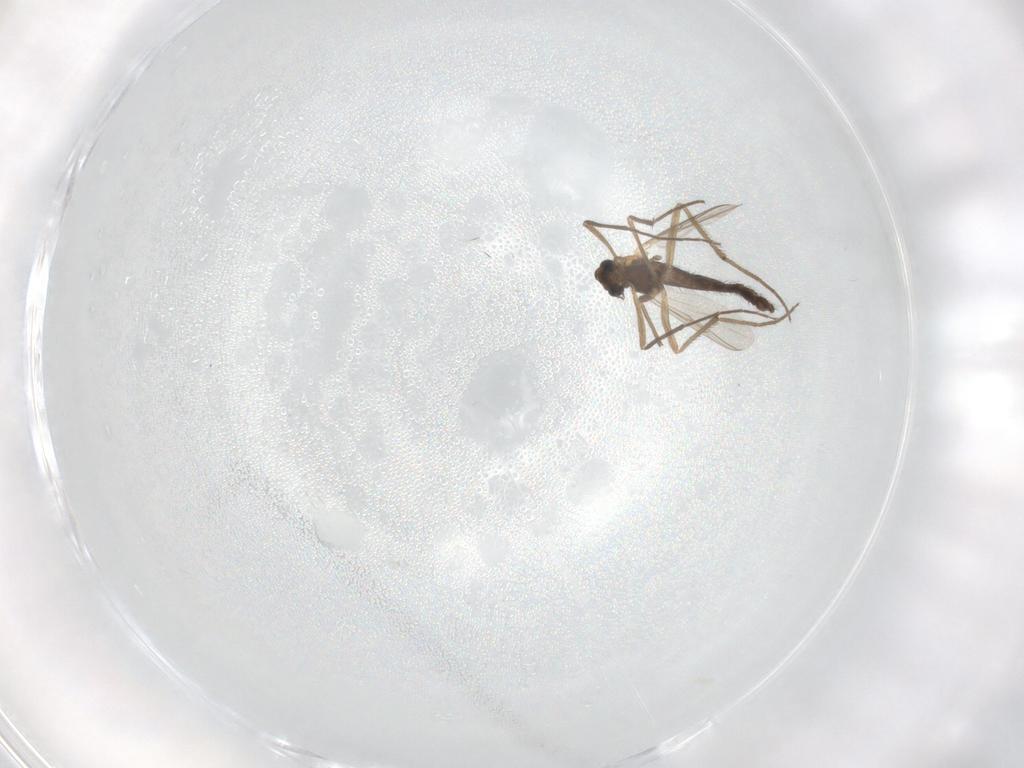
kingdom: Animalia
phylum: Arthropoda
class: Insecta
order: Diptera
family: Chironomidae
